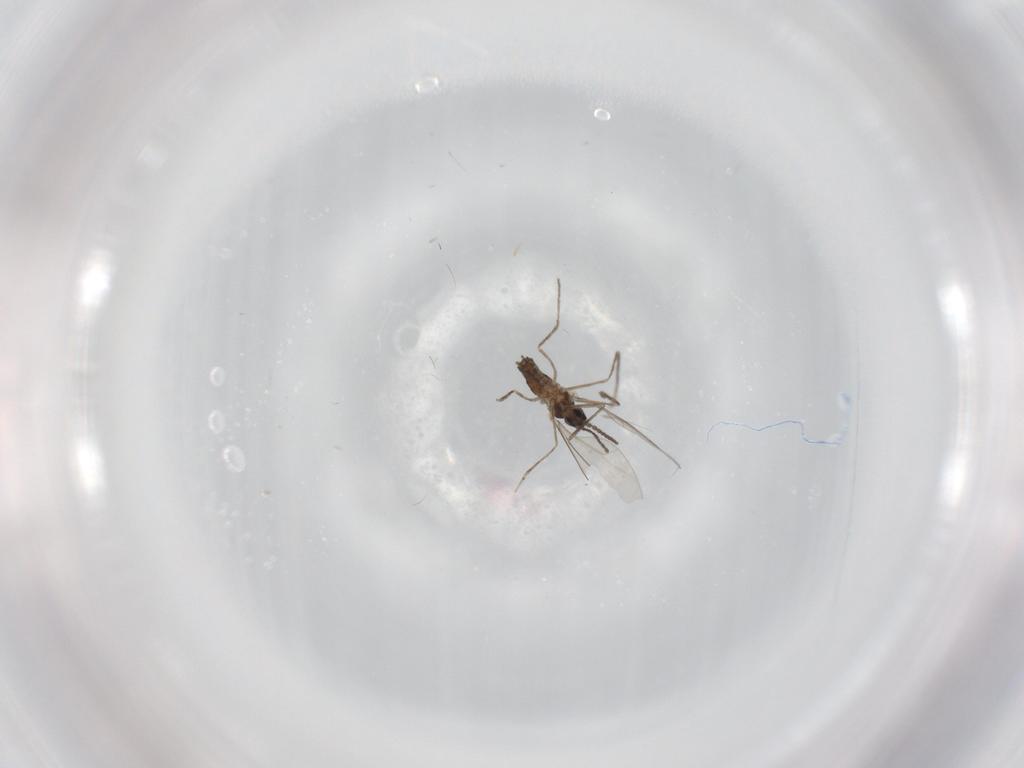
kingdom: Animalia
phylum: Arthropoda
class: Insecta
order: Diptera
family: Cecidomyiidae
